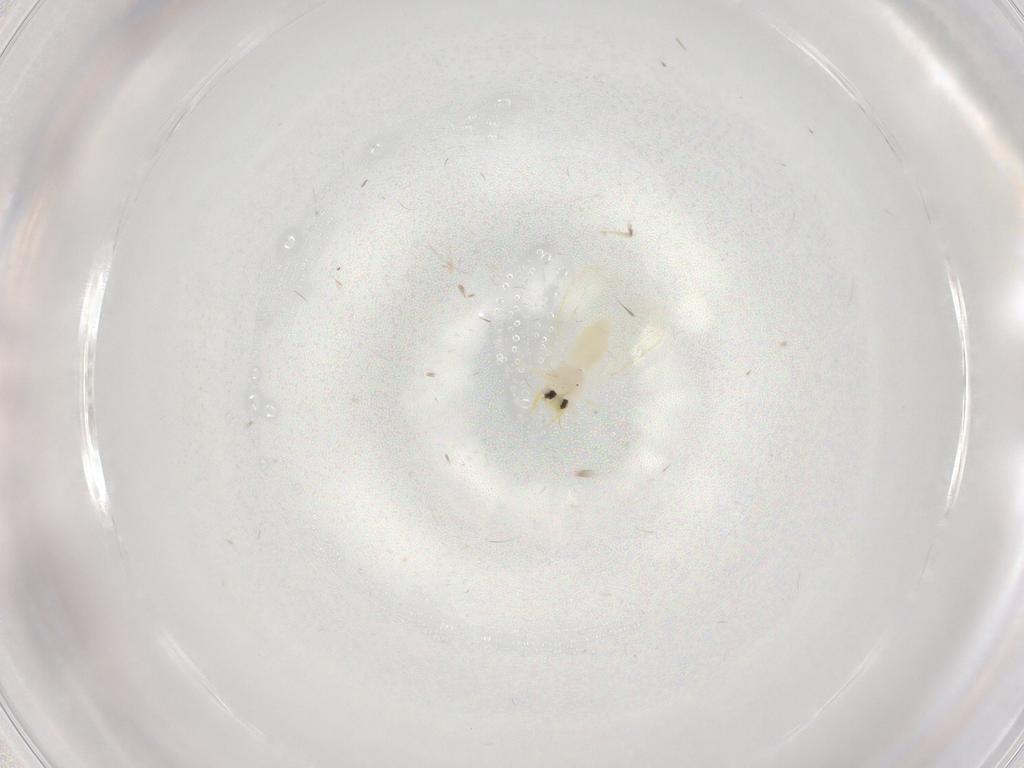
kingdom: Animalia
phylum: Arthropoda
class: Insecta
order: Hemiptera
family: Aleyrodidae
